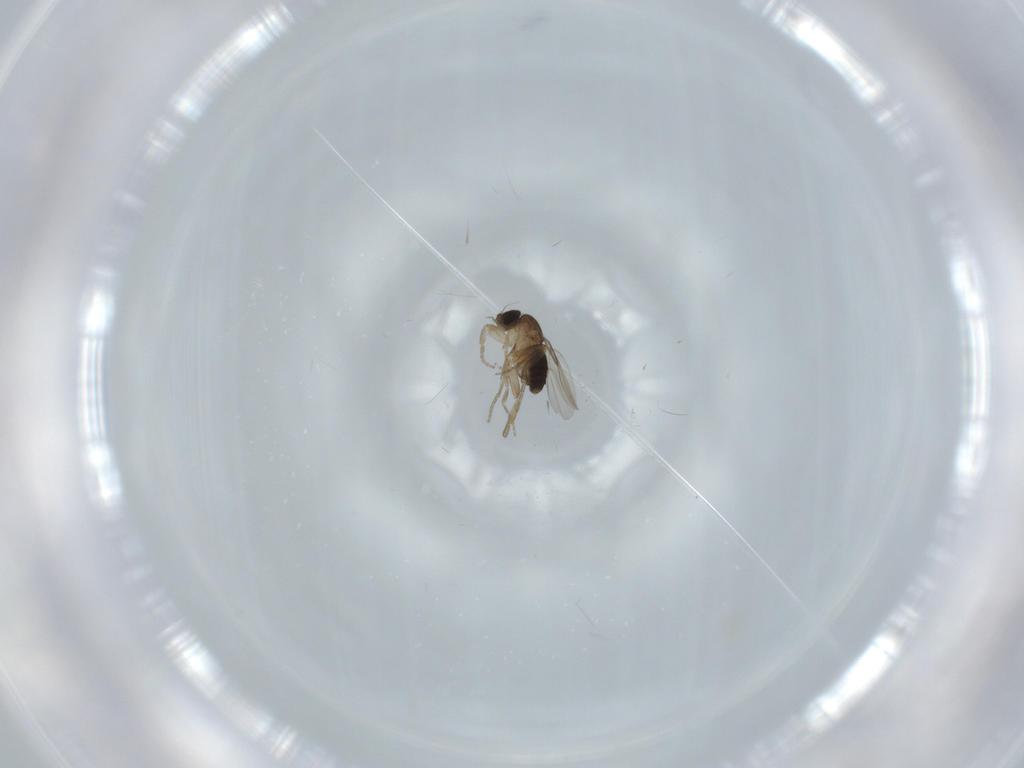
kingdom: Animalia
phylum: Arthropoda
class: Insecta
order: Diptera
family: Phoridae
